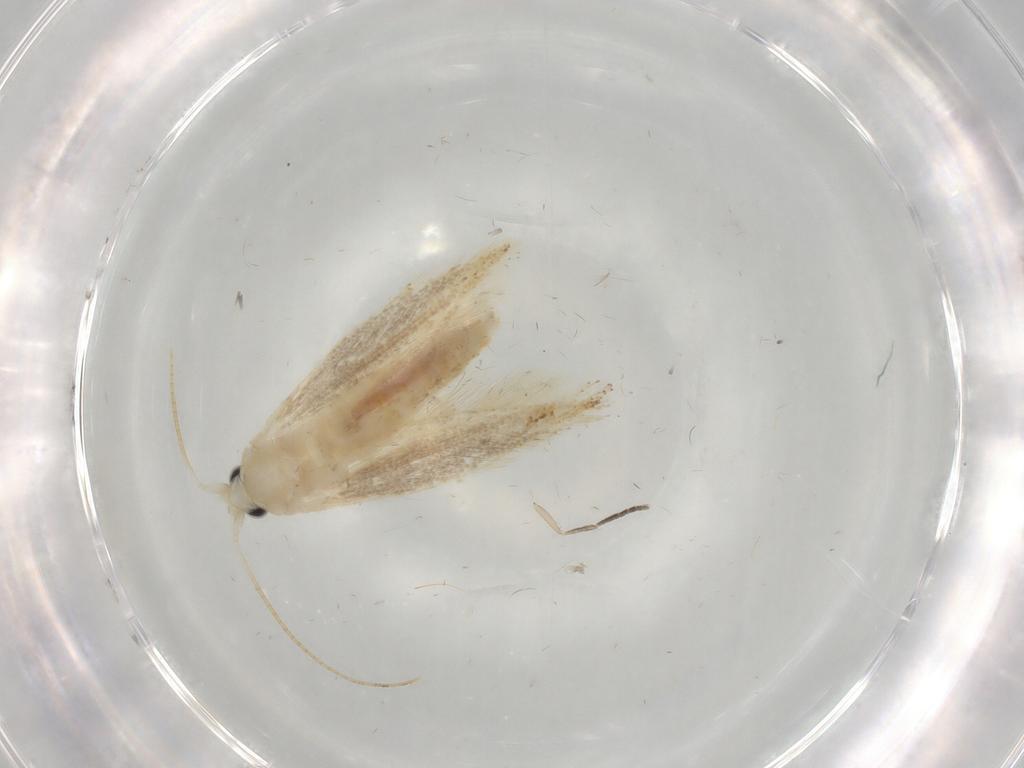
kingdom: Animalia
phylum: Arthropoda
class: Insecta
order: Lepidoptera
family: Bucculatricidae
